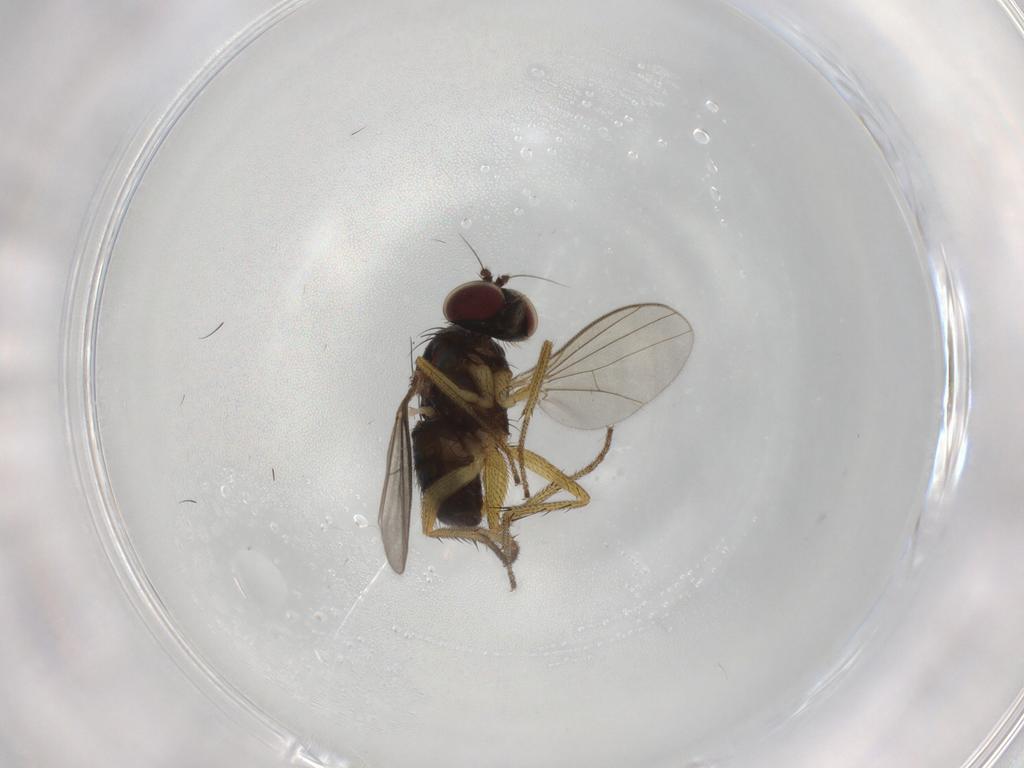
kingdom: Animalia
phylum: Arthropoda
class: Insecta
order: Diptera
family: Dolichopodidae
